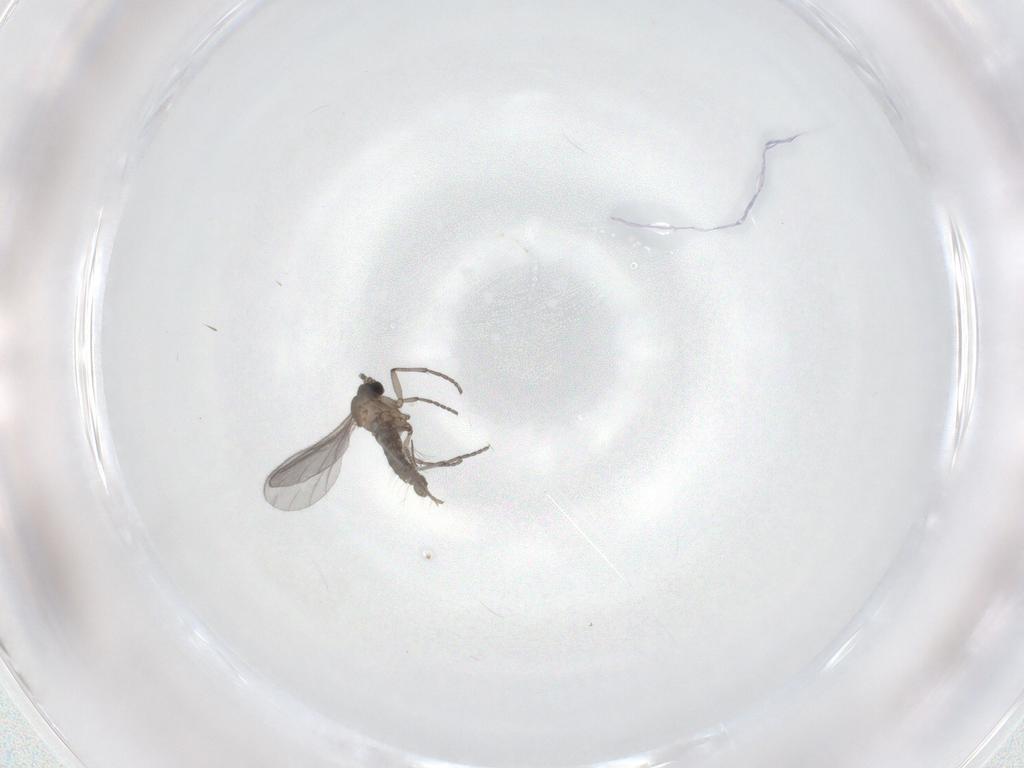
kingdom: Animalia
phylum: Arthropoda
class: Insecta
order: Diptera
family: Sciaridae
